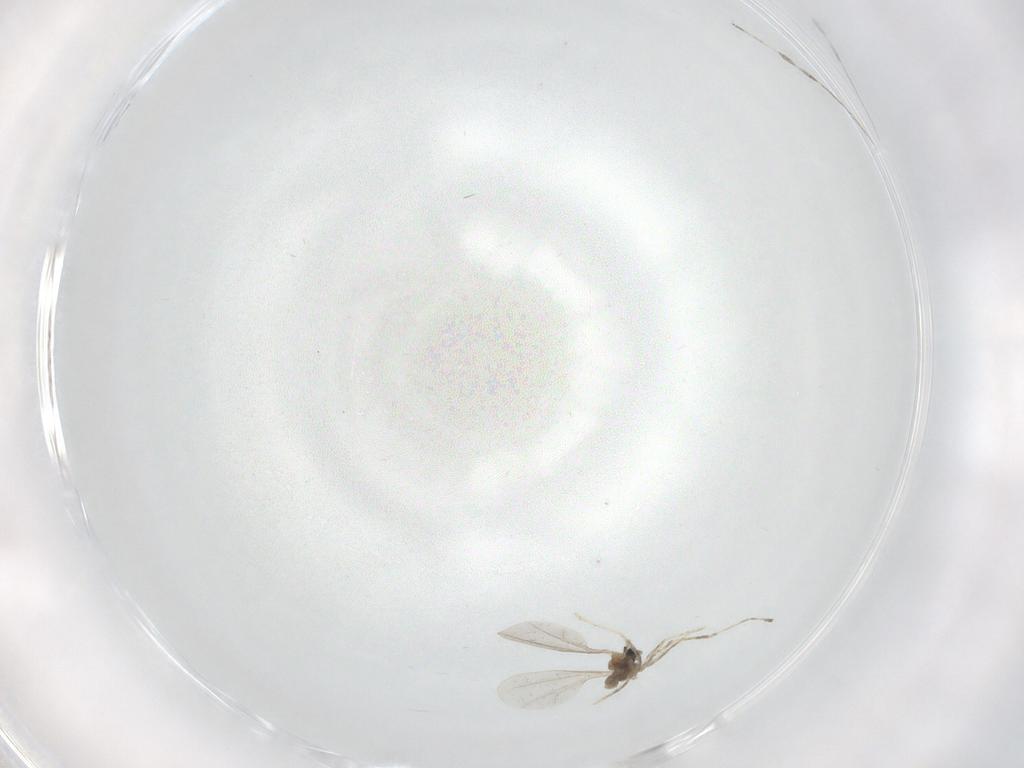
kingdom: Animalia
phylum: Arthropoda
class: Insecta
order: Diptera
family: Cecidomyiidae
